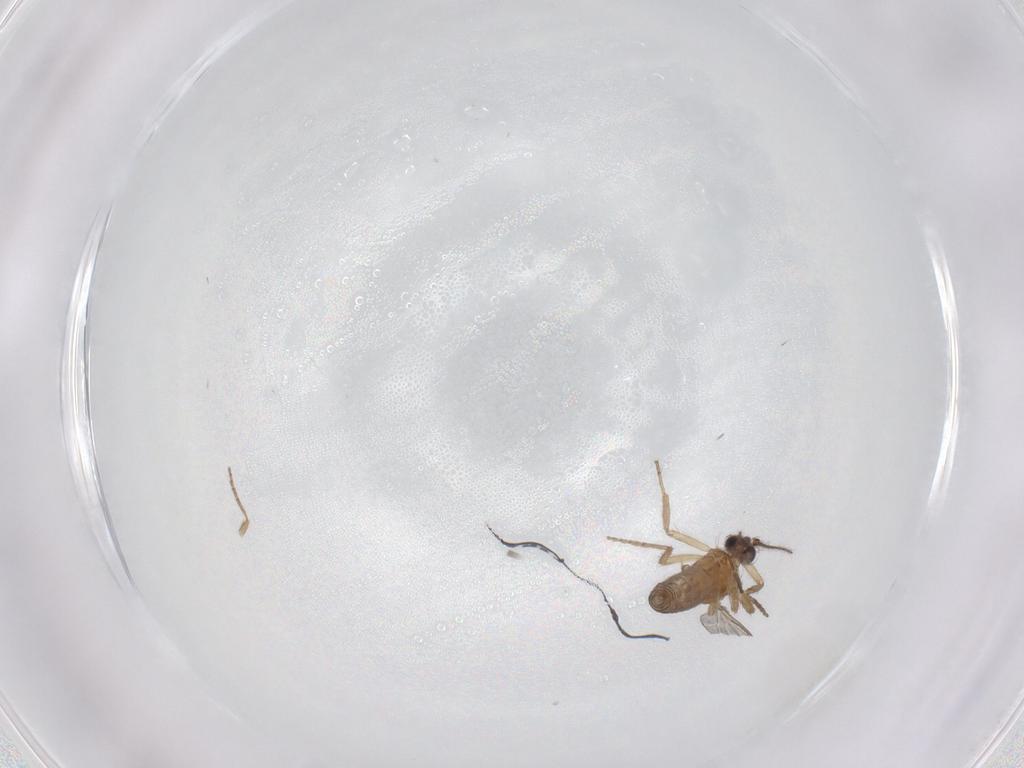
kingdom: Animalia
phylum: Arthropoda
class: Insecta
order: Diptera
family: Ceratopogonidae
